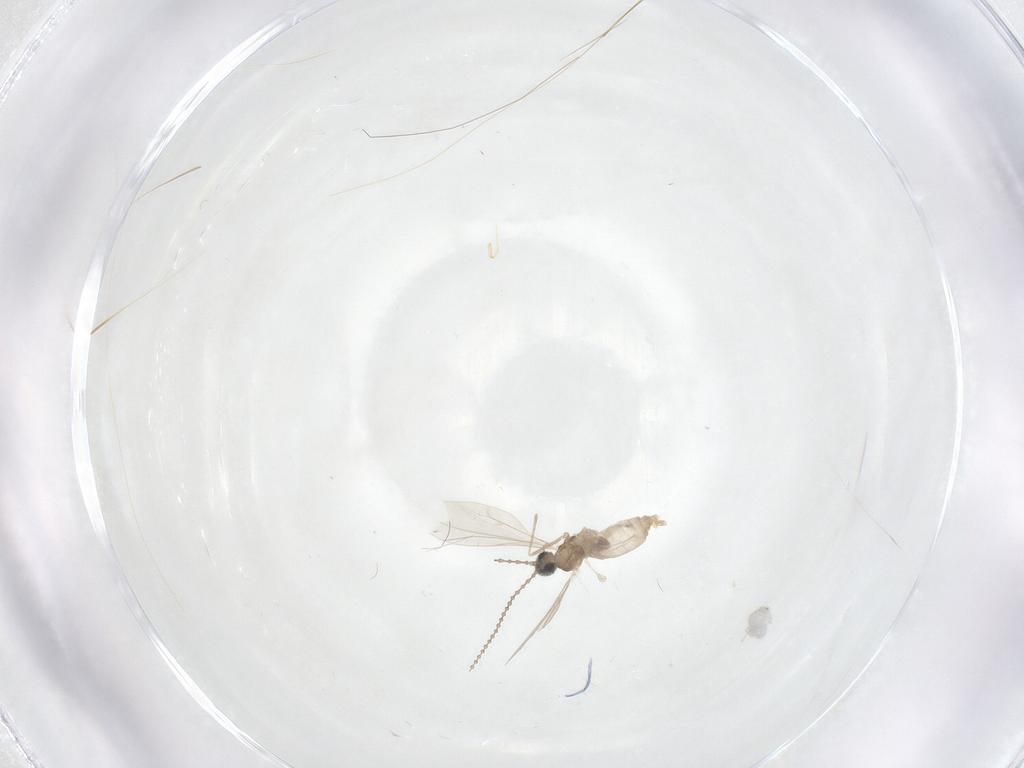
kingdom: Animalia
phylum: Arthropoda
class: Insecta
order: Diptera
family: Cecidomyiidae
